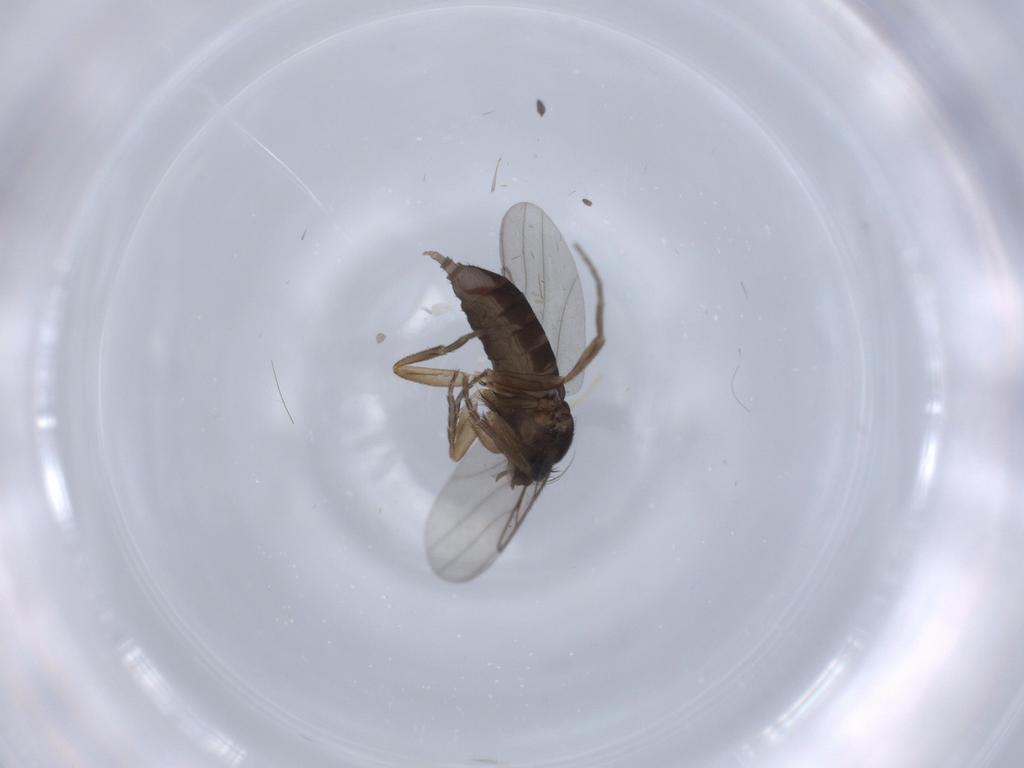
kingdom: Animalia
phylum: Arthropoda
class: Insecta
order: Diptera
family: Phoridae
